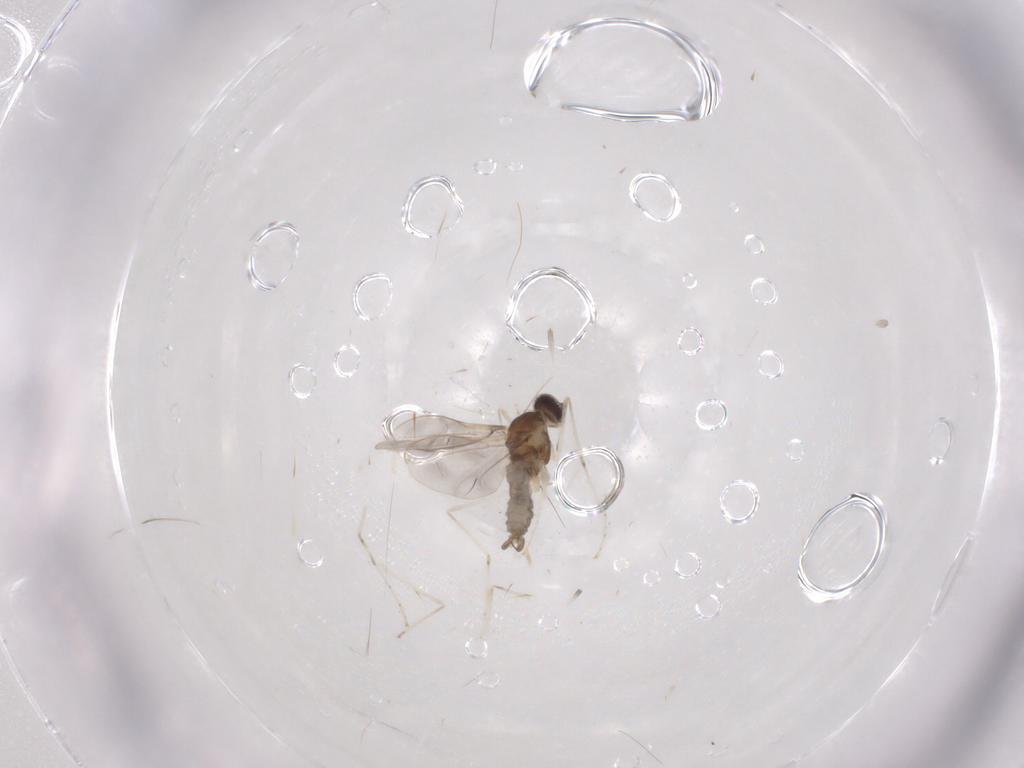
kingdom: Animalia
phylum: Arthropoda
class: Insecta
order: Diptera
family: Cecidomyiidae
